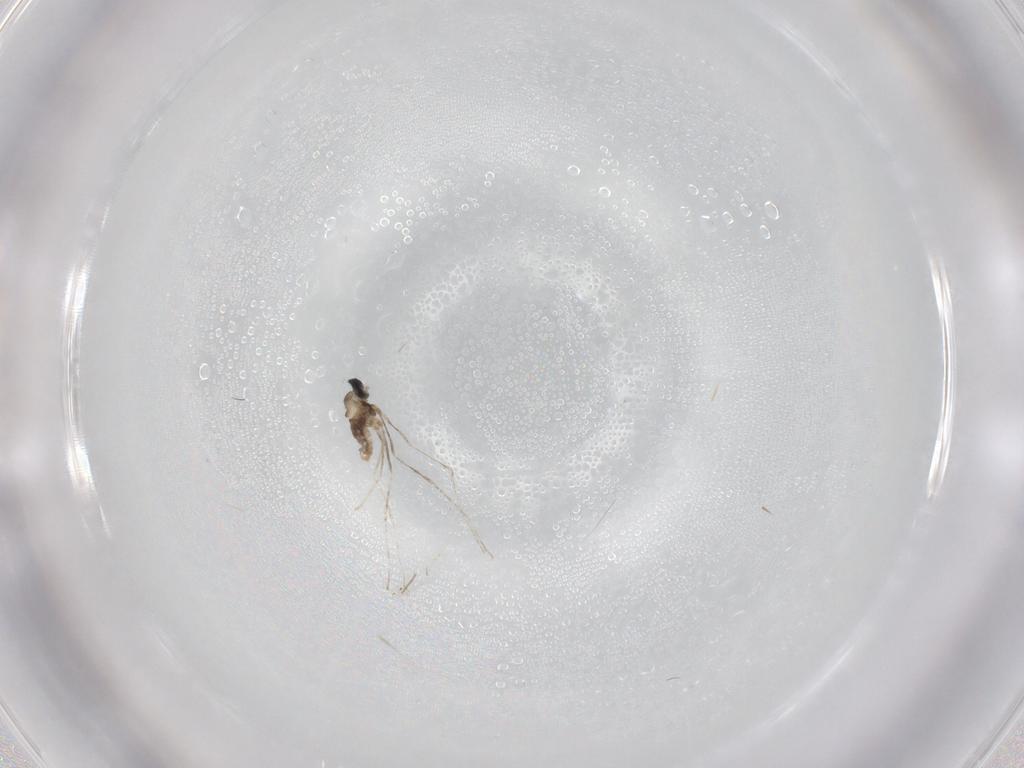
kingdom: Animalia
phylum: Arthropoda
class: Insecta
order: Diptera
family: Cecidomyiidae
